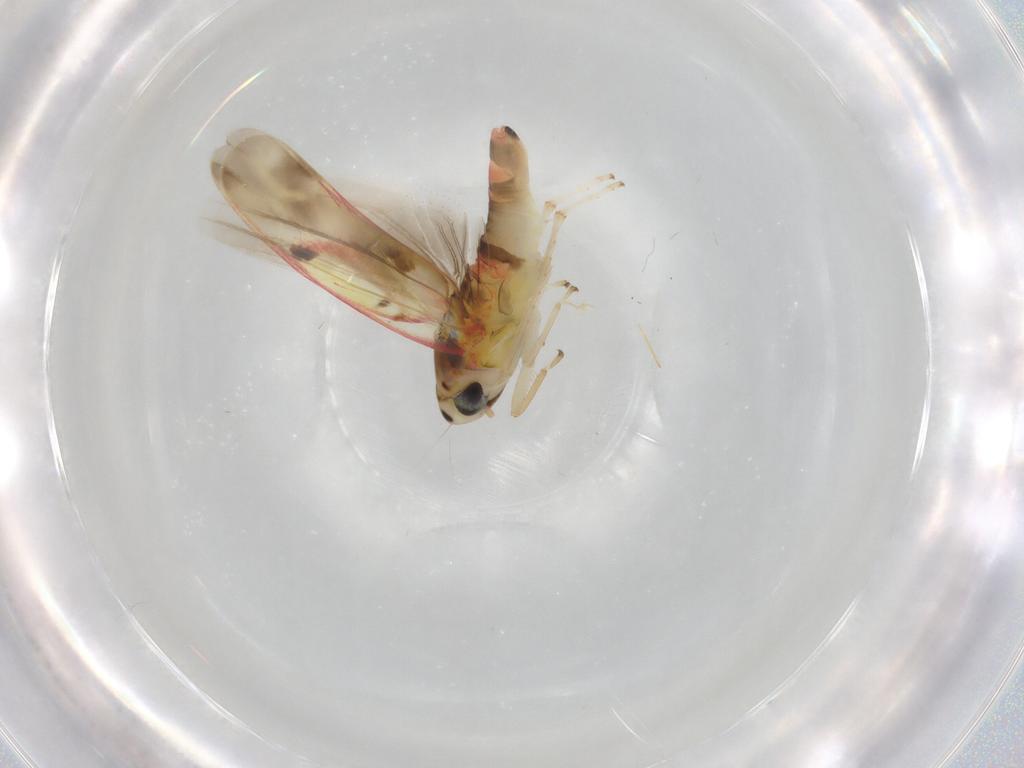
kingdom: Animalia
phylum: Arthropoda
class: Insecta
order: Hemiptera
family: Cicadellidae
